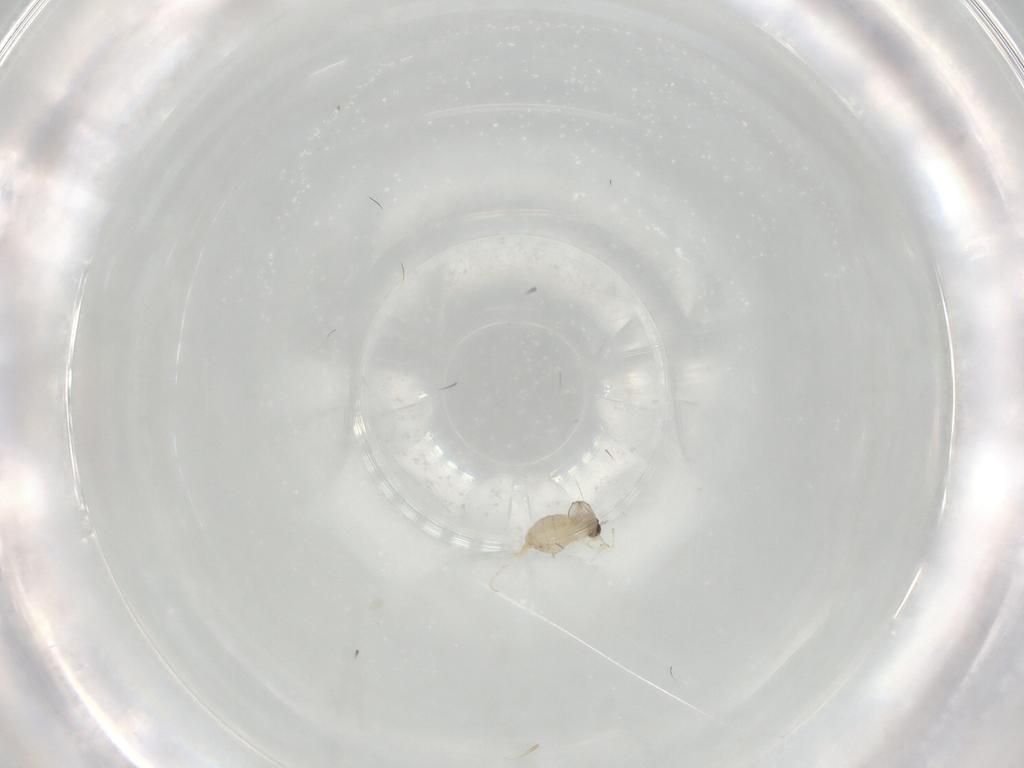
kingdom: Animalia
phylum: Arthropoda
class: Insecta
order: Diptera
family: Cecidomyiidae
